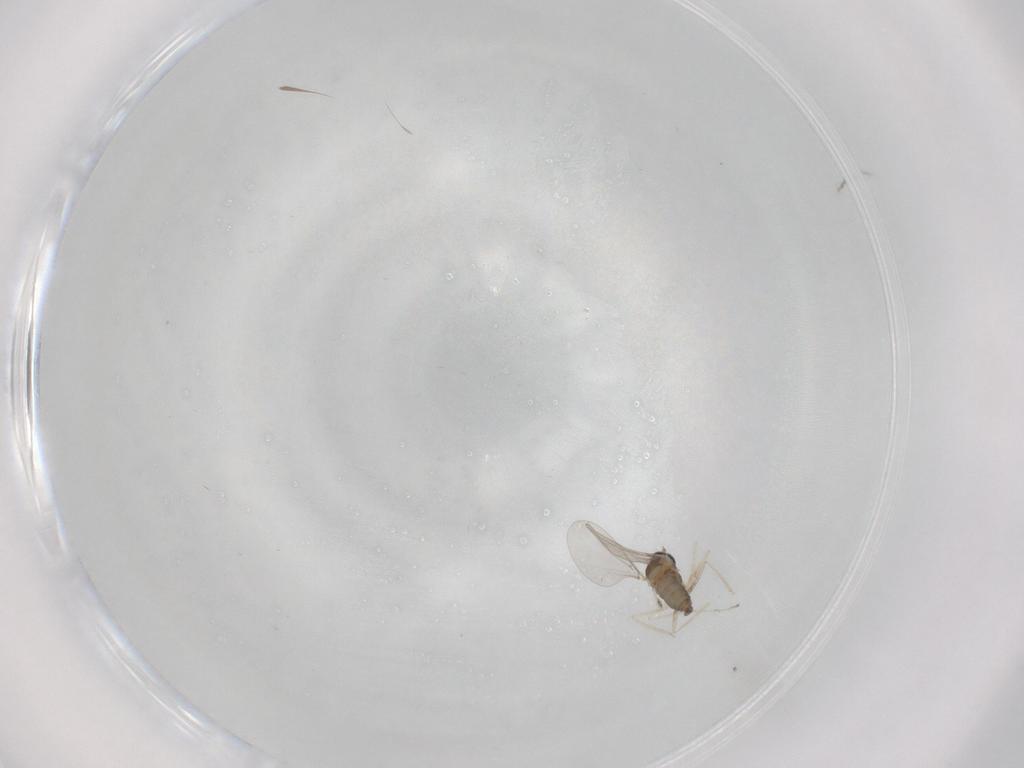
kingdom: Animalia
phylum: Arthropoda
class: Insecta
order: Diptera
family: Cecidomyiidae
